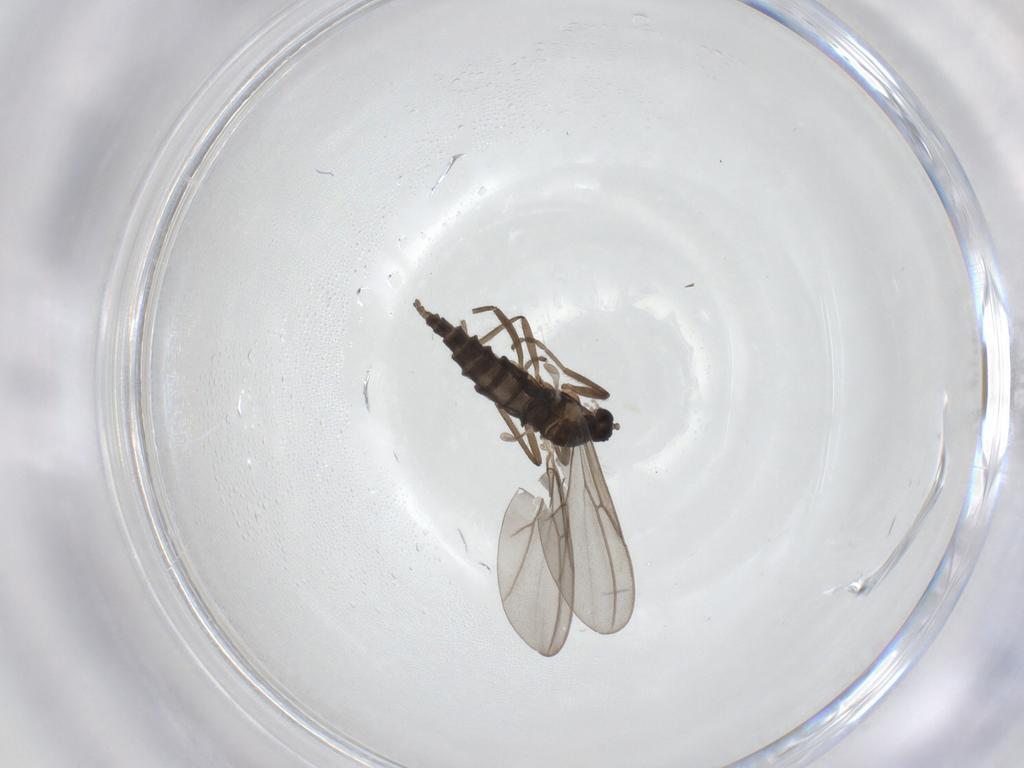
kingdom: Animalia
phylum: Arthropoda
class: Insecta
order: Diptera
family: Cecidomyiidae
